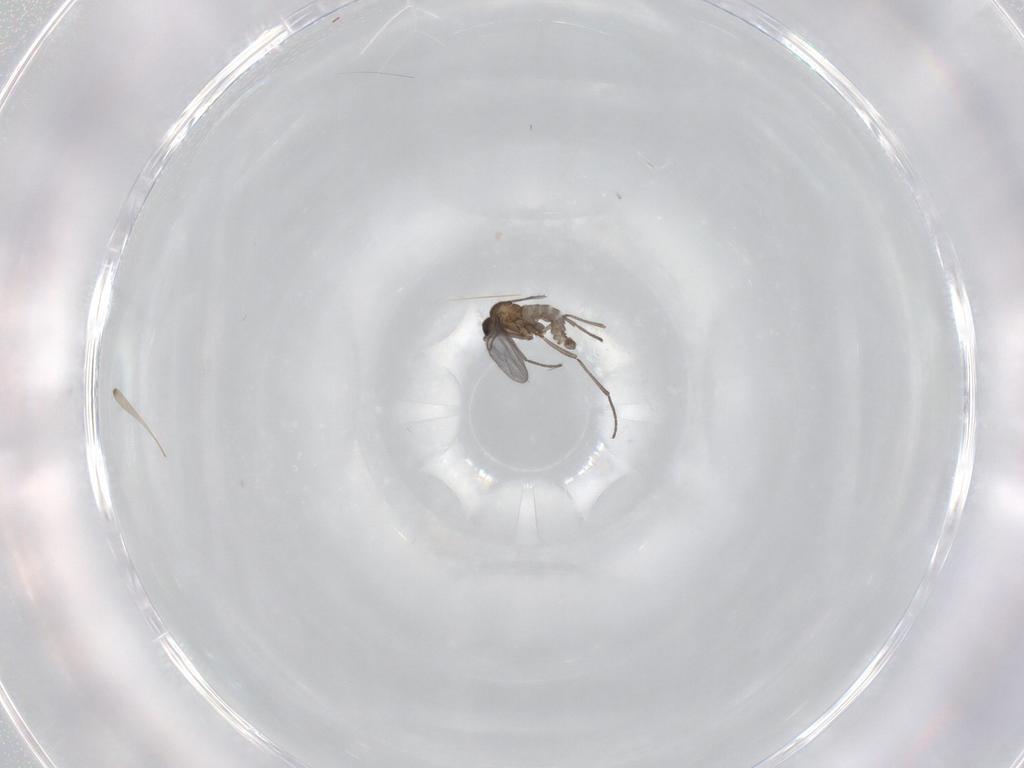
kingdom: Animalia
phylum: Arthropoda
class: Insecta
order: Diptera
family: Sciaridae
